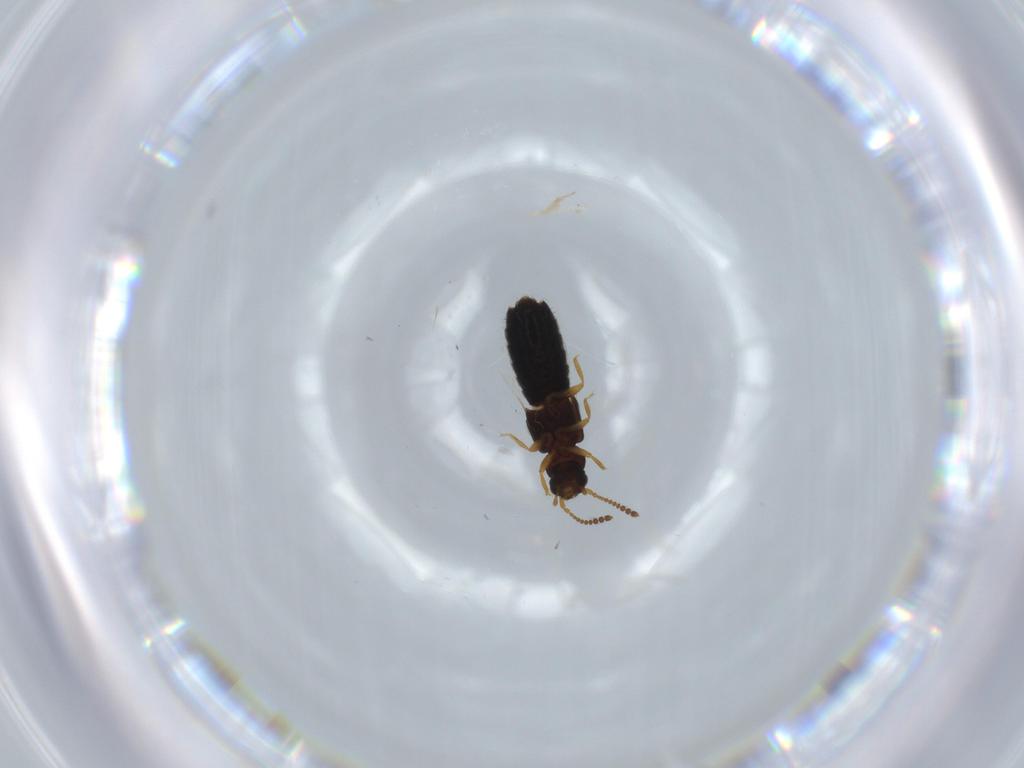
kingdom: Animalia
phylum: Arthropoda
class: Insecta
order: Coleoptera
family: Staphylinidae
